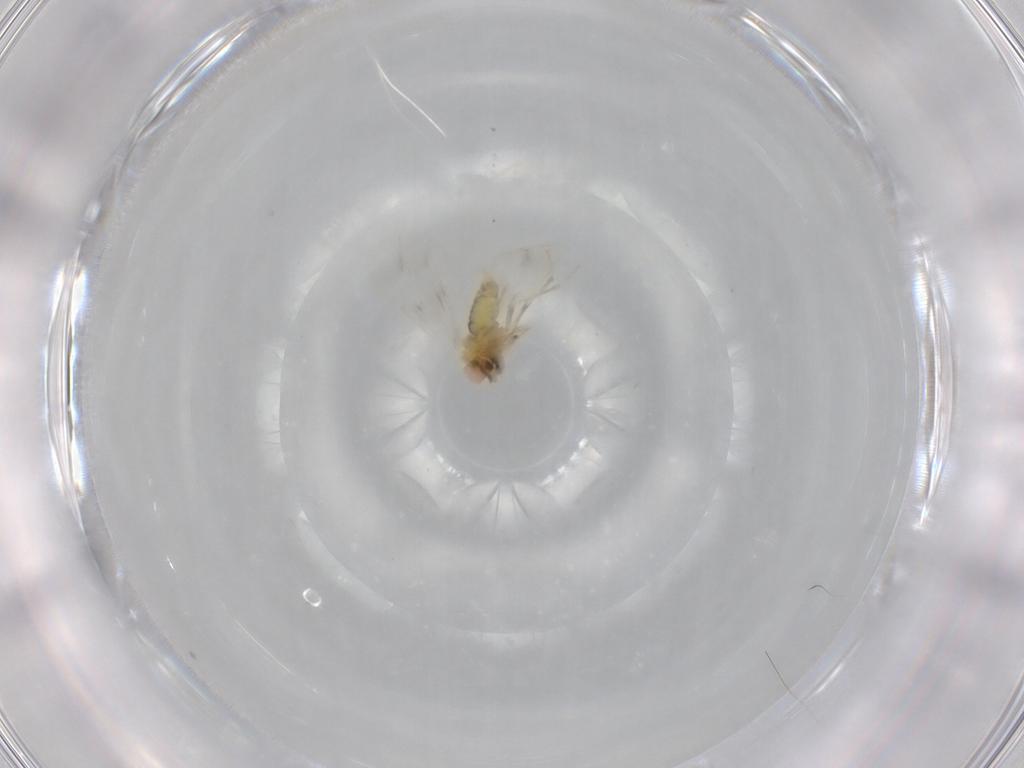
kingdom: Animalia
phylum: Arthropoda
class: Insecta
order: Hemiptera
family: Aleyrodidae
